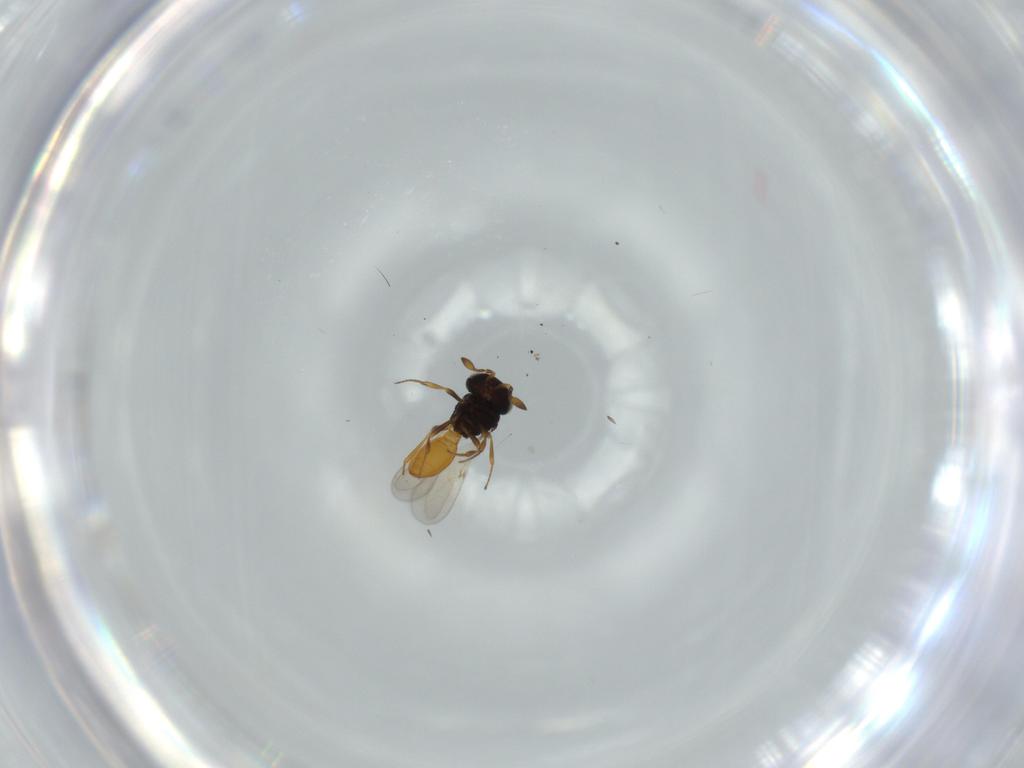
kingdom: Animalia
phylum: Arthropoda
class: Insecta
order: Hymenoptera
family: Scelionidae
